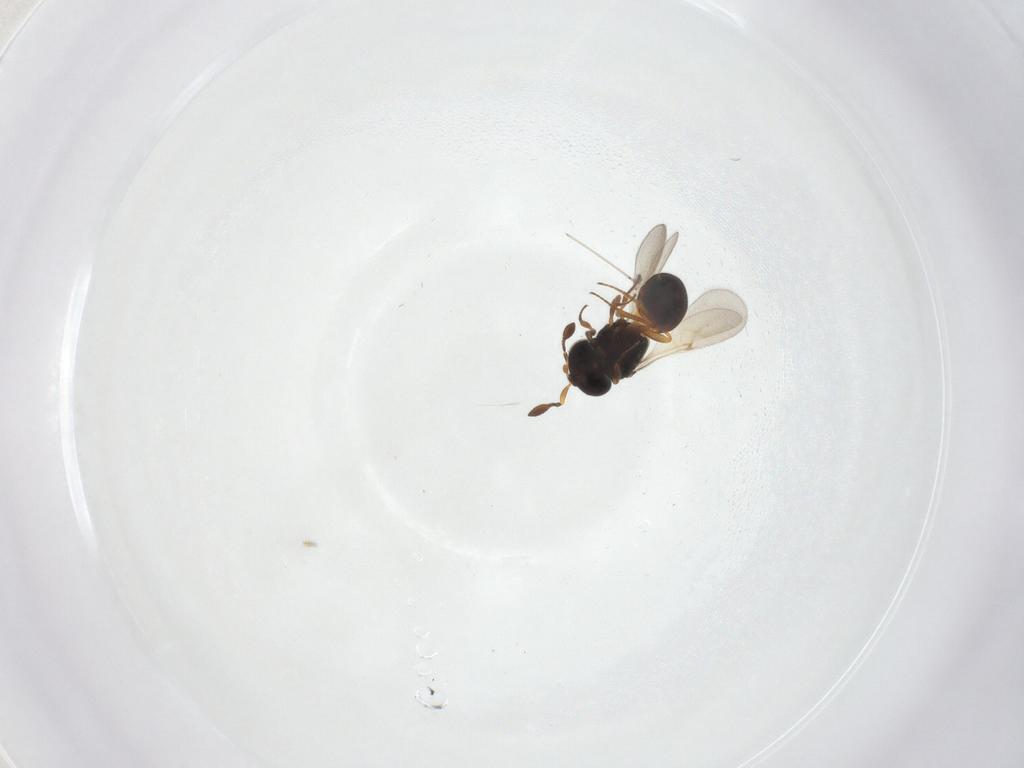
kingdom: Animalia
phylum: Arthropoda
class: Insecta
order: Hymenoptera
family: Scelionidae
